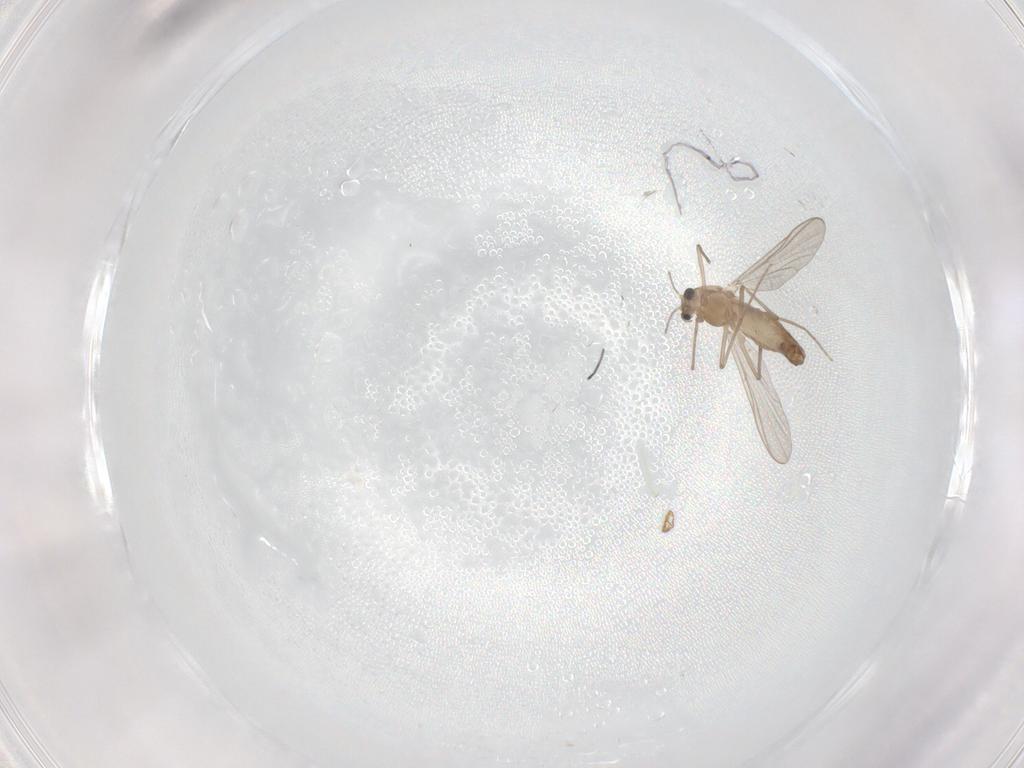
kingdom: Animalia
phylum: Arthropoda
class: Insecta
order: Diptera
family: Chironomidae
